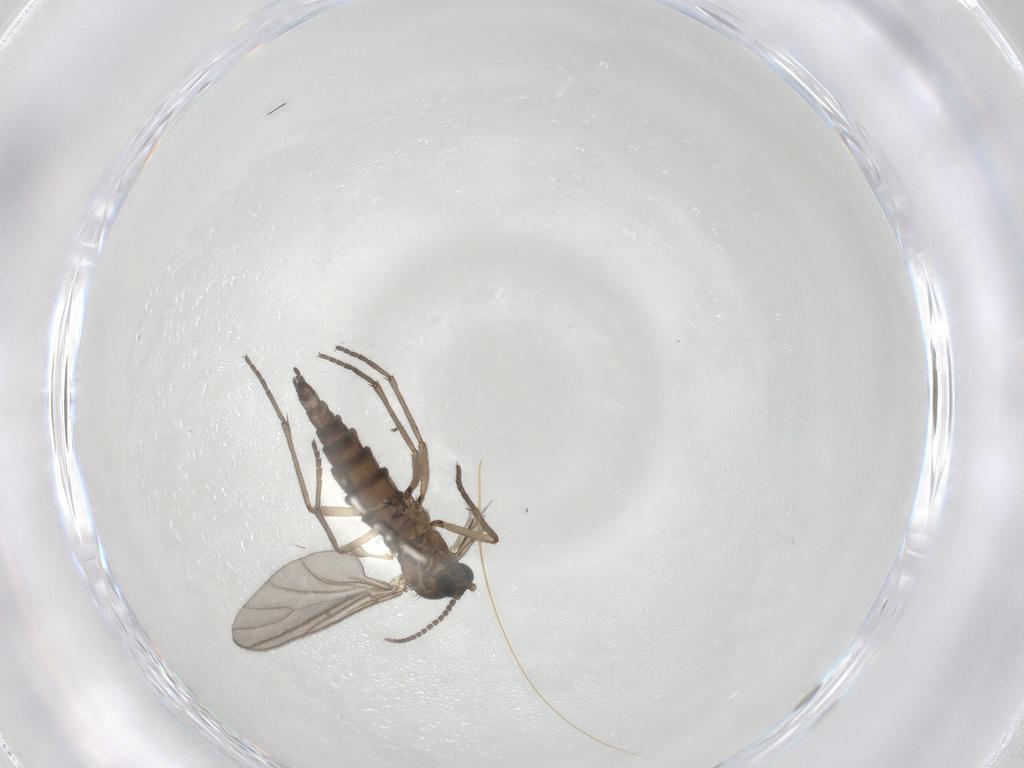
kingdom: Animalia
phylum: Arthropoda
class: Insecta
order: Diptera
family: Sciaridae
